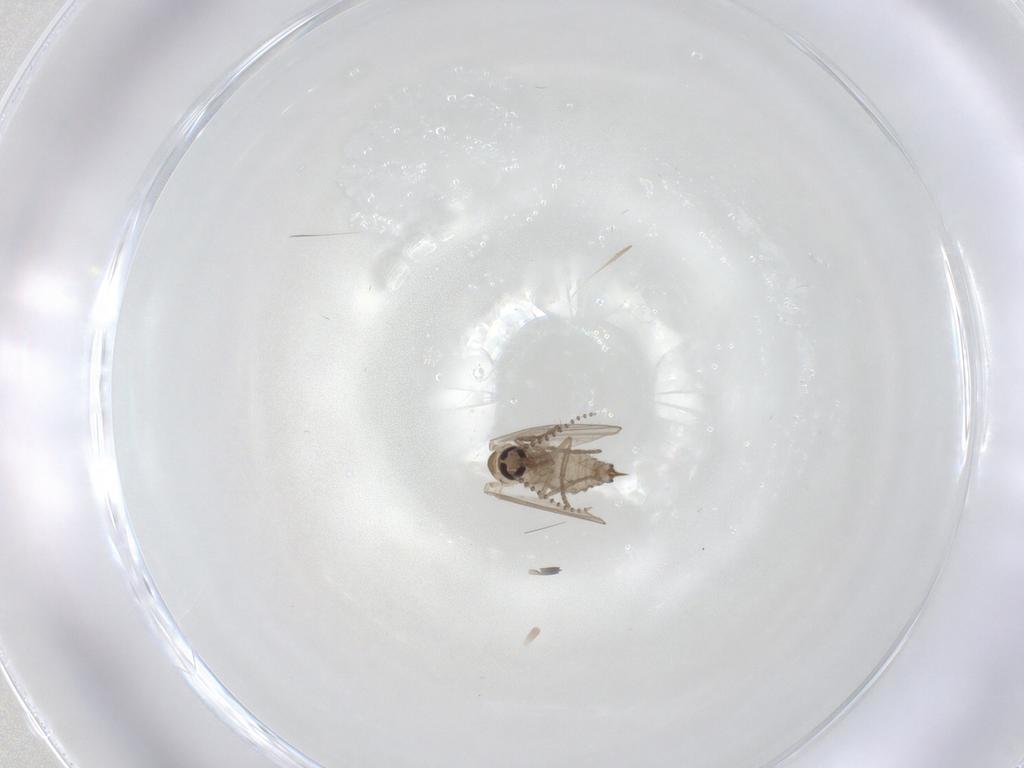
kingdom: Animalia
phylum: Arthropoda
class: Insecta
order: Diptera
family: Psychodidae
